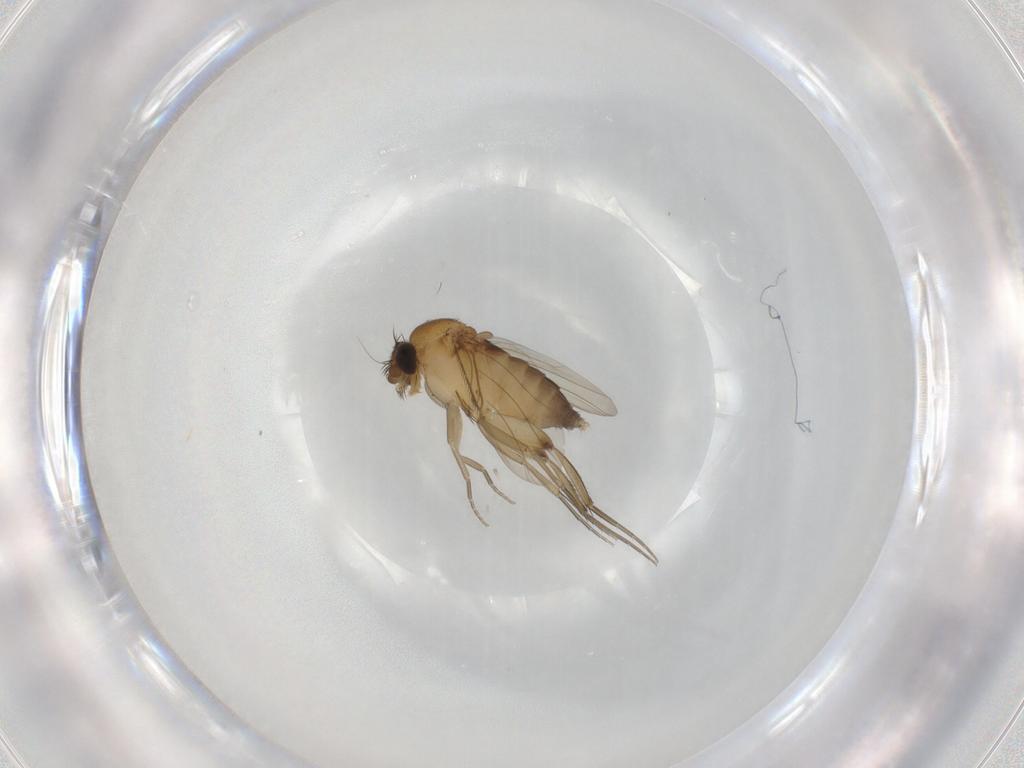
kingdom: Animalia
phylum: Arthropoda
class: Insecta
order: Diptera
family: Phoridae
